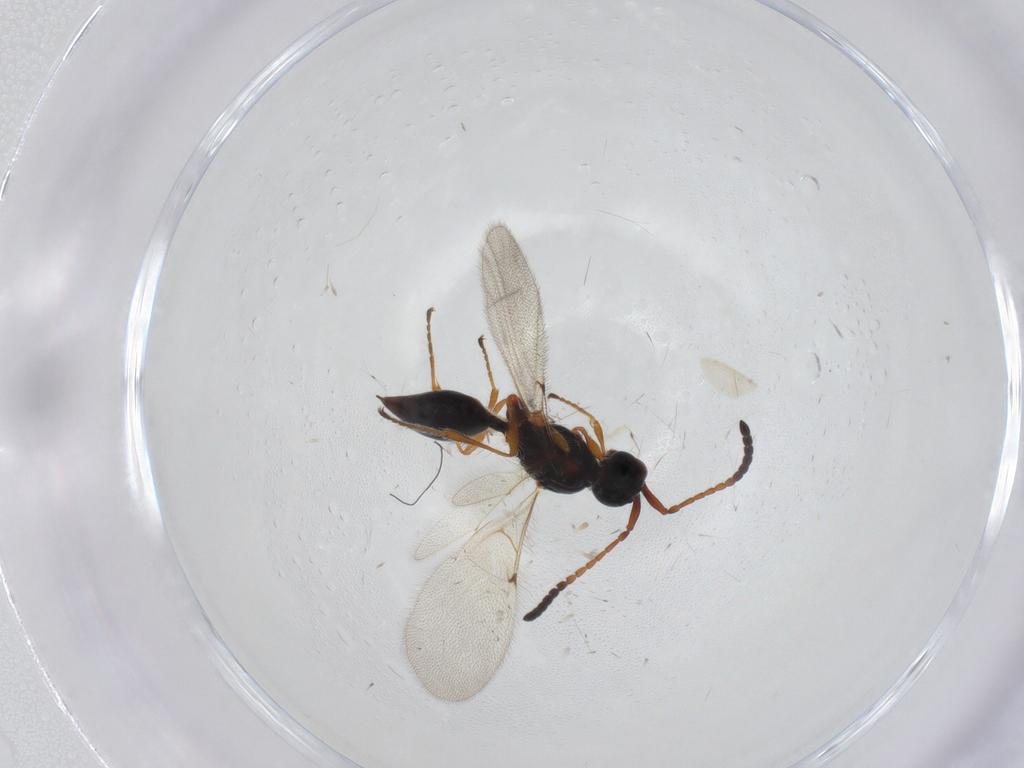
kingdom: Animalia
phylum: Arthropoda
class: Insecta
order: Hymenoptera
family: Diapriidae
